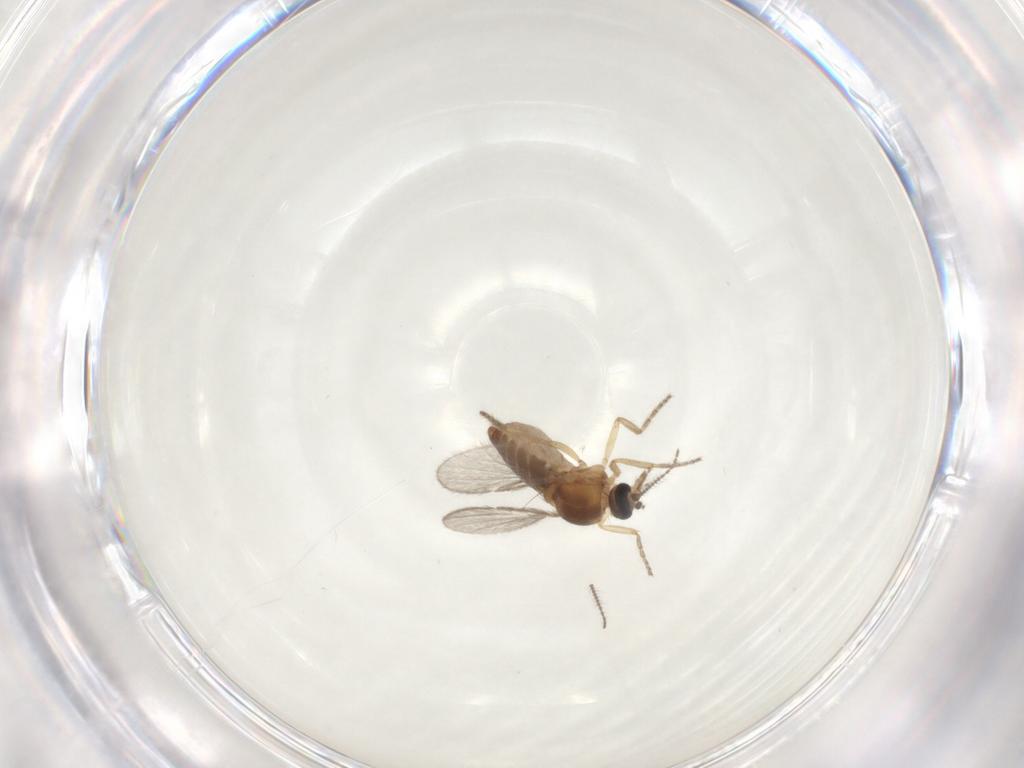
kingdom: Animalia
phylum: Arthropoda
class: Insecta
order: Diptera
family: Ceratopogonidae
